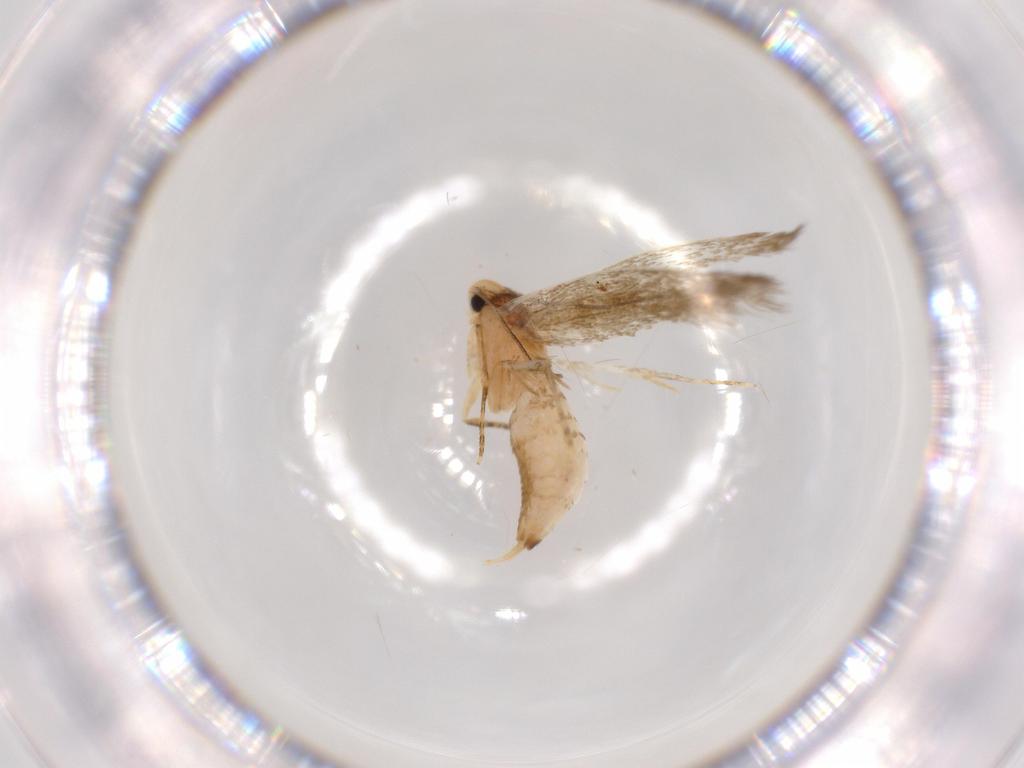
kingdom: Animalia
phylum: Arthropoda
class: Insecta
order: Lepidoptera
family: Tineidae
